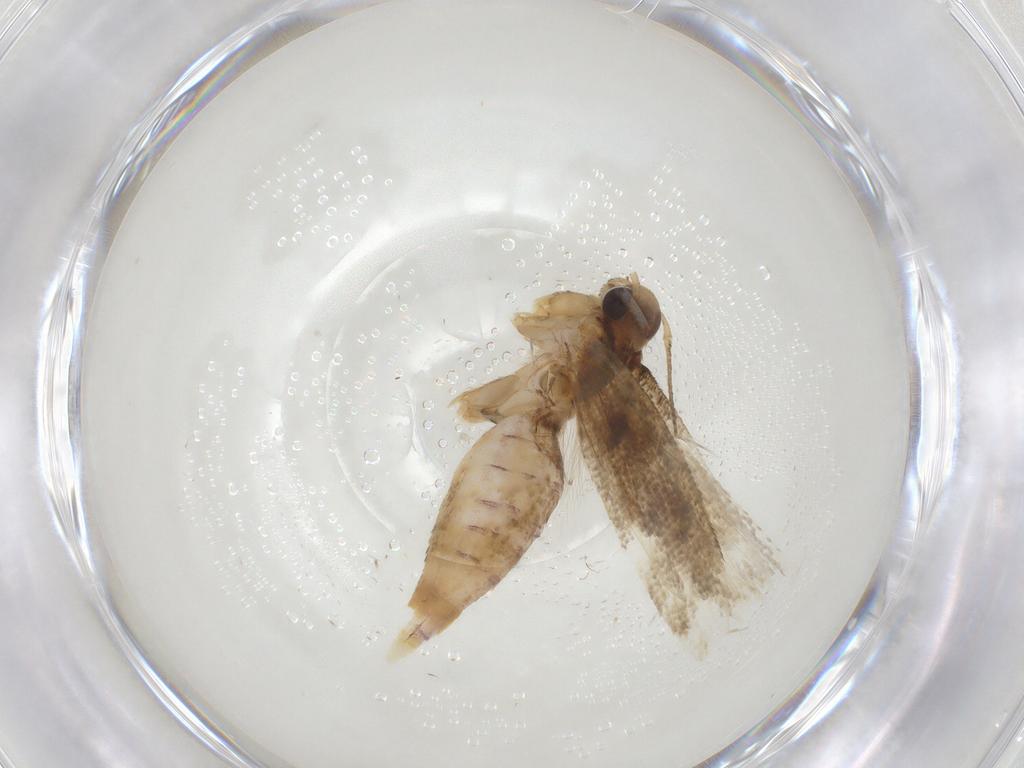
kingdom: Animalia
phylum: Arthropoda
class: Insecta
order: Lepidoptera
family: Gelechiidae
